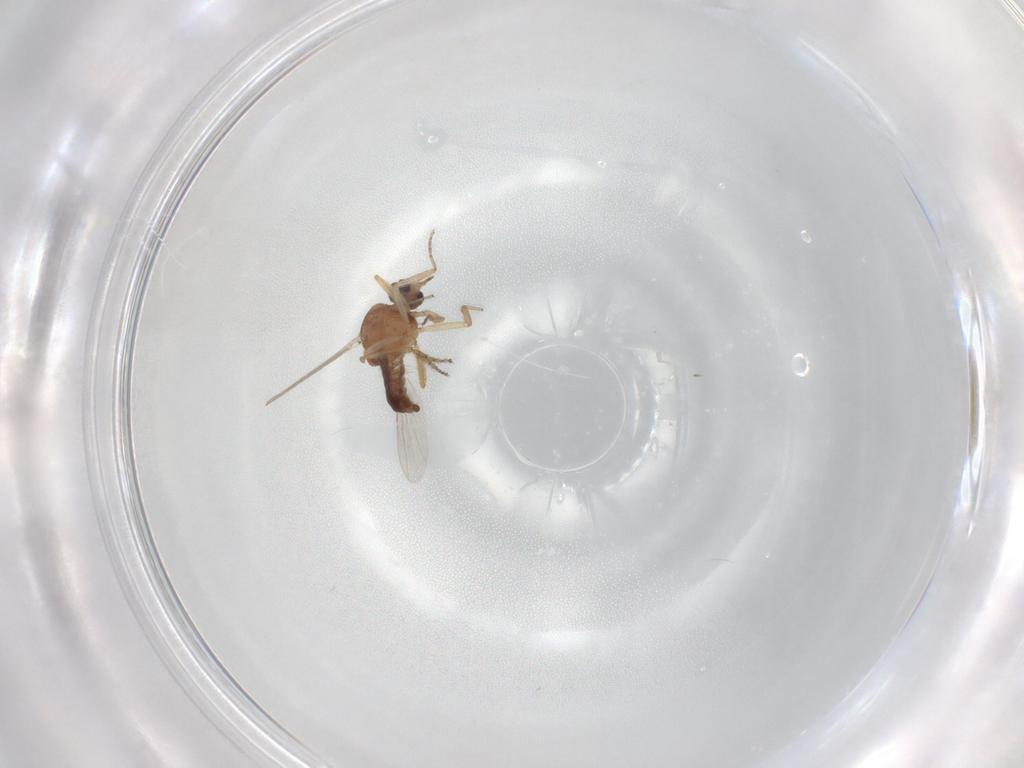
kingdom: Animalia
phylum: Arthropoda
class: Insecta
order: Diptera
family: Ceratopogonidae
